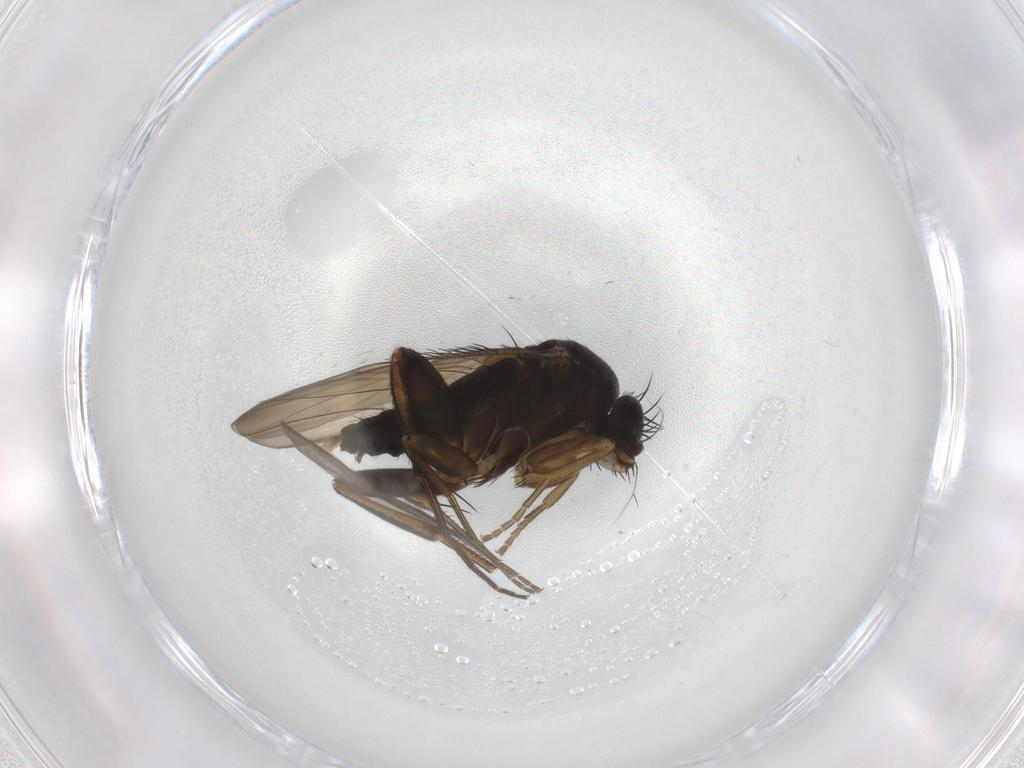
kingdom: Animalia
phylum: Arthropoda
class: Insecta
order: Diptera
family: Phoridae
